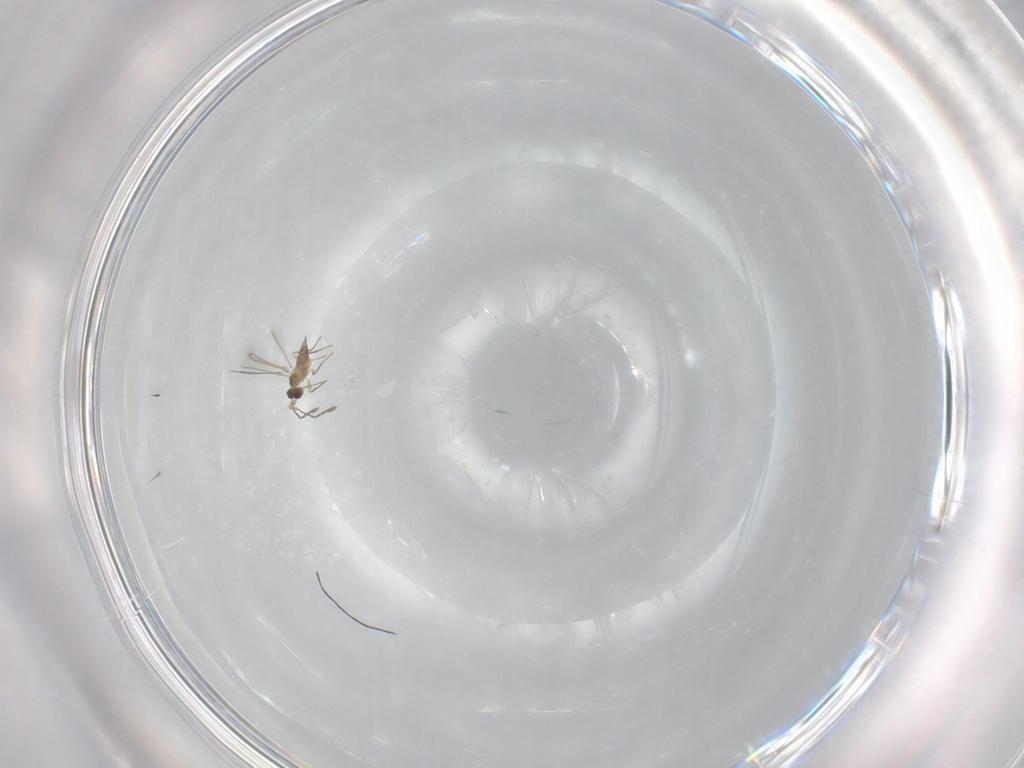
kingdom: Animalia
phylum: Arthropoda
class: Insecta
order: Hymenoptera
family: Mymaridae
